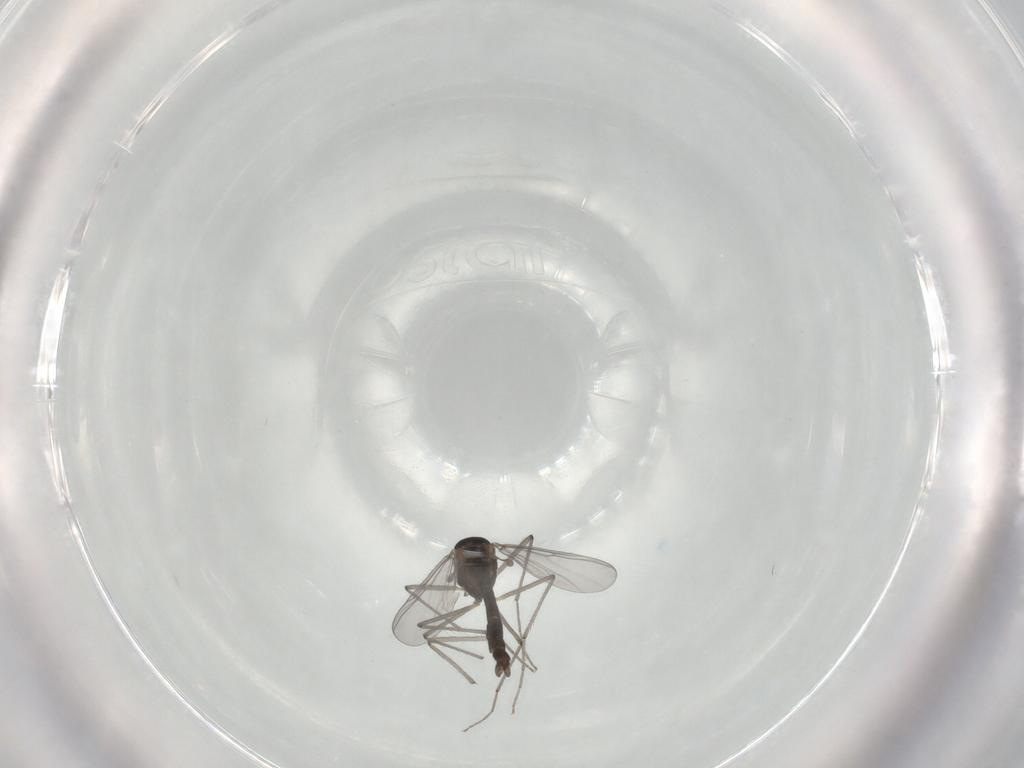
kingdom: Animalia
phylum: Arthropoda
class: Insecta
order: Diptera
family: Chironomidae
